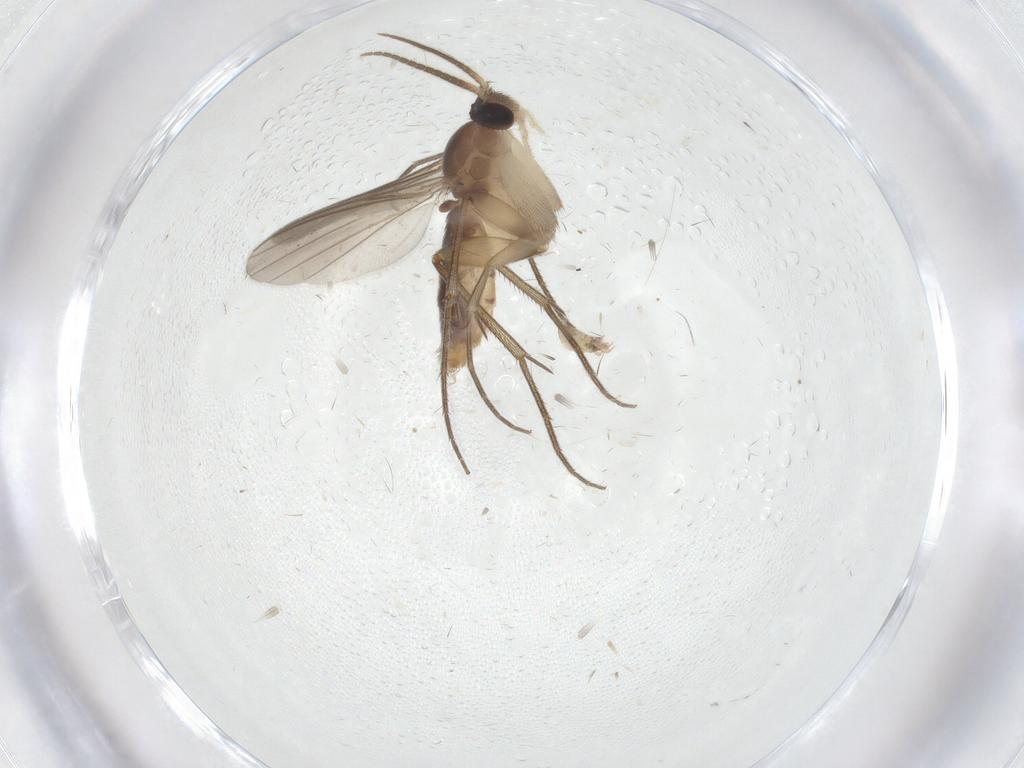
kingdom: Animalia
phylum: Arthropoda
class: Insecta
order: Diptera
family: Mycetophilidae
